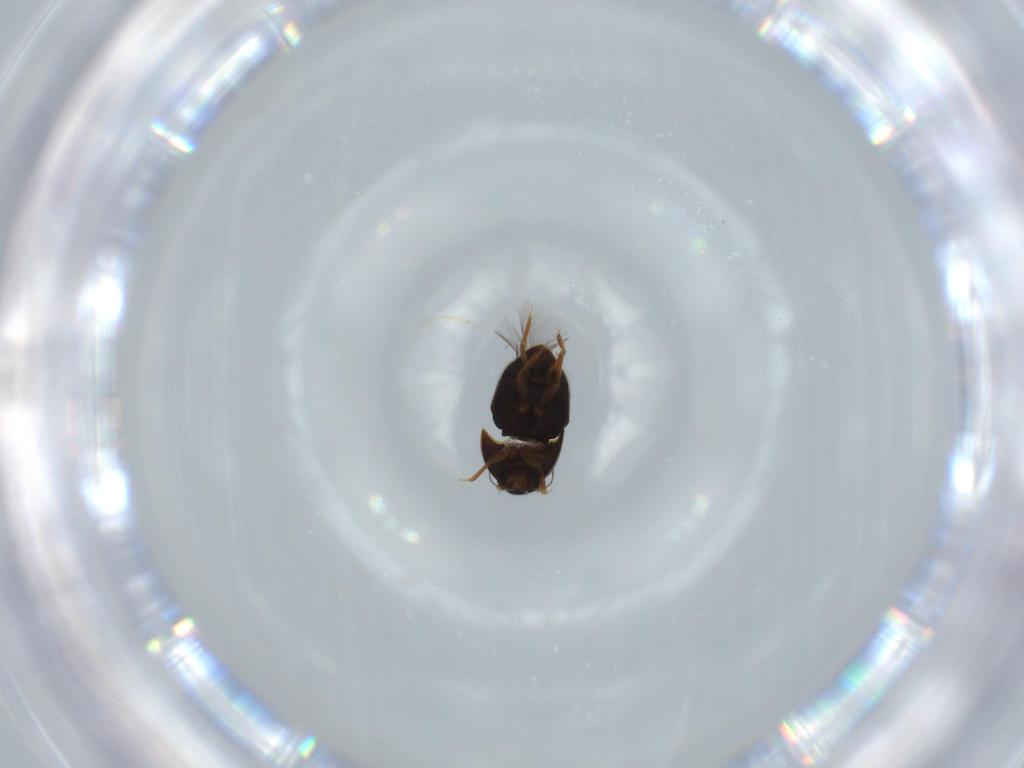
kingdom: Animalia
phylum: Arthropoda
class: Insecta
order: Coleoptera
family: Ptiliidae
